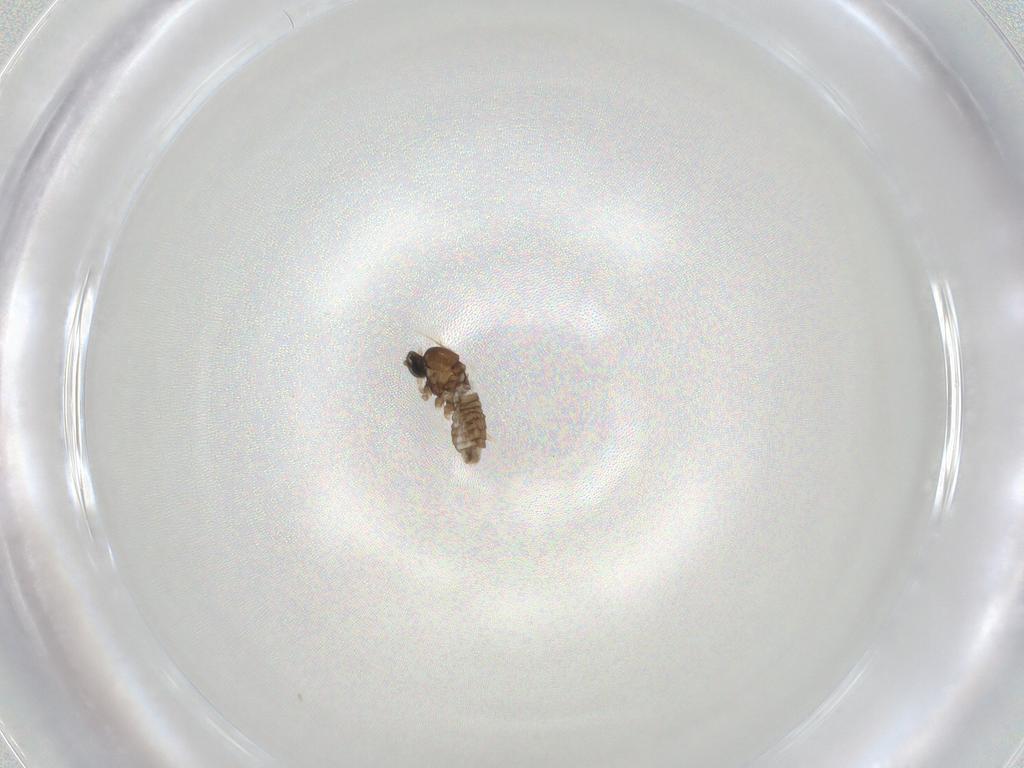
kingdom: Animalia
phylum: Arthropoda
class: Insecta
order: Diptera
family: Cecidomyiidae
